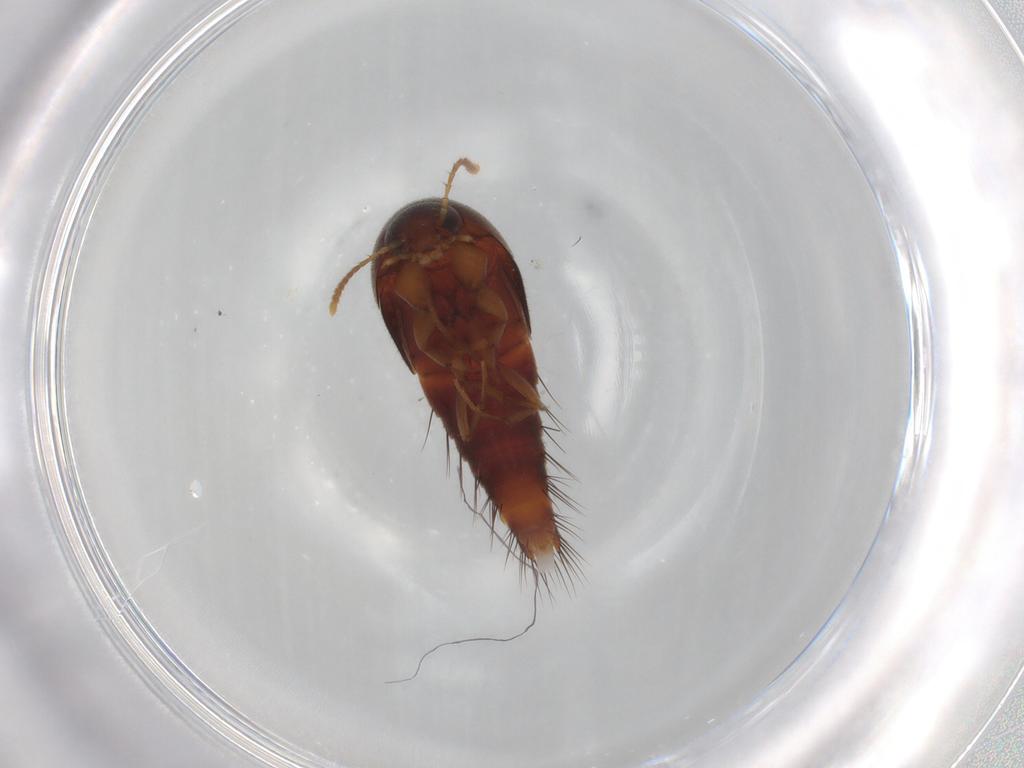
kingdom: Animalia
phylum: Arthropoda
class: Insecta
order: Coleoptera
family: Staphylinidae
